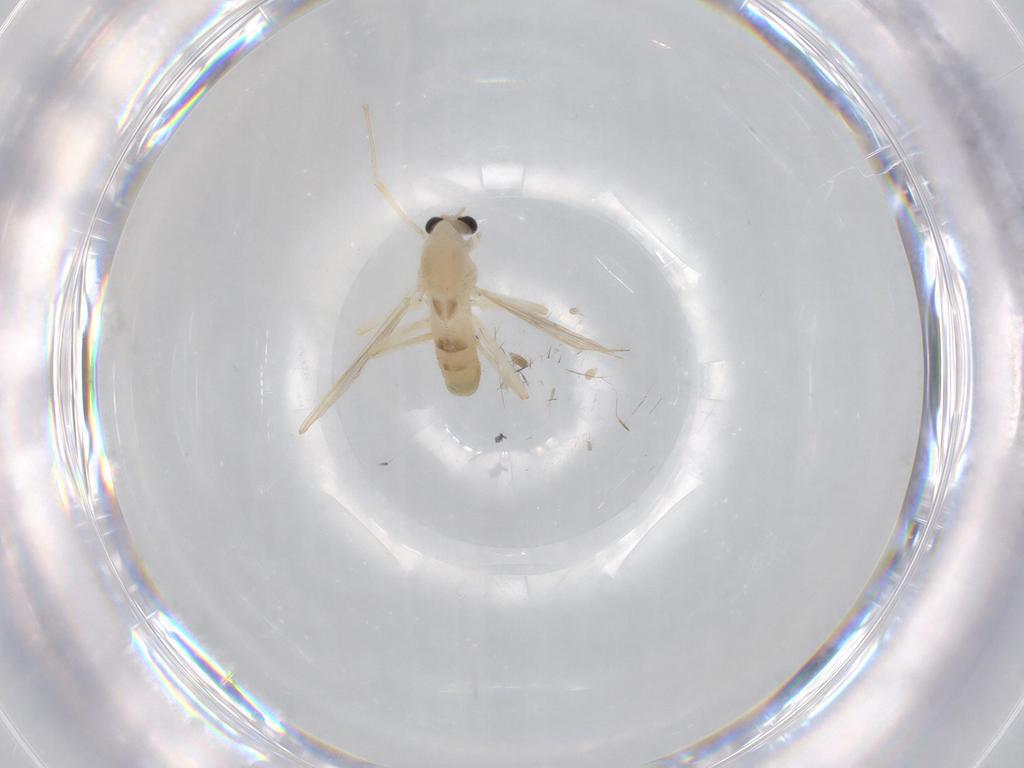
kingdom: Animalia
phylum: Arthropoda
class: Insecta
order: Diptera
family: Chironomidae
